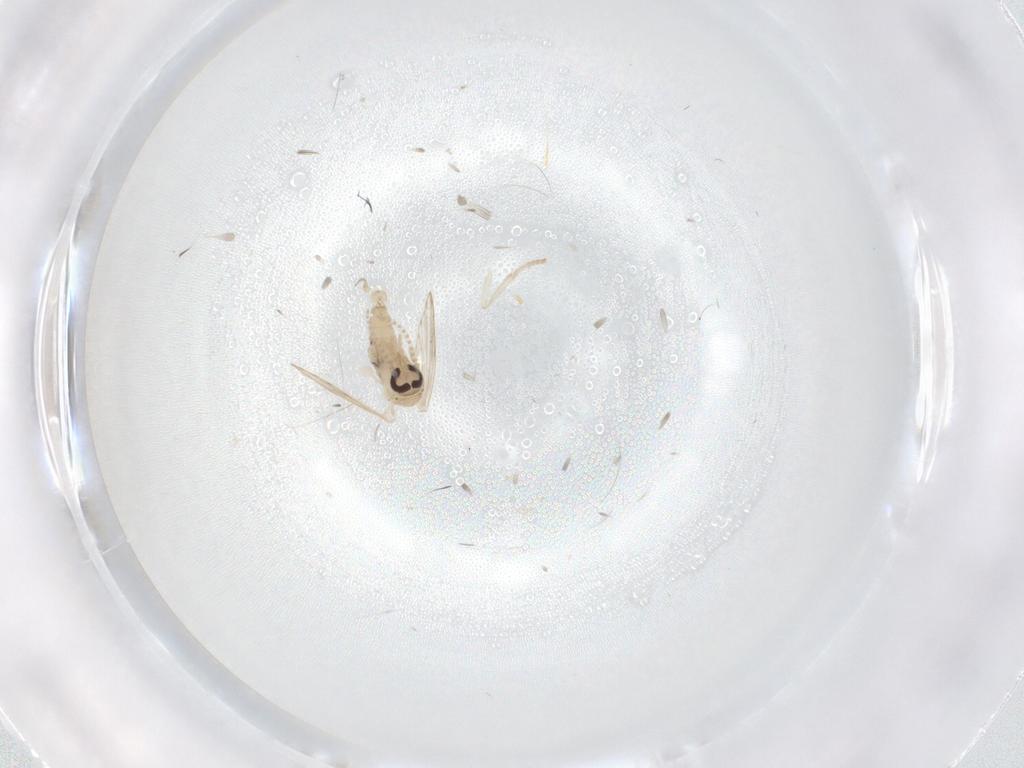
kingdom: Animalia
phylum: Arthropoda
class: Insecta
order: Diptera
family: Psychodidae
